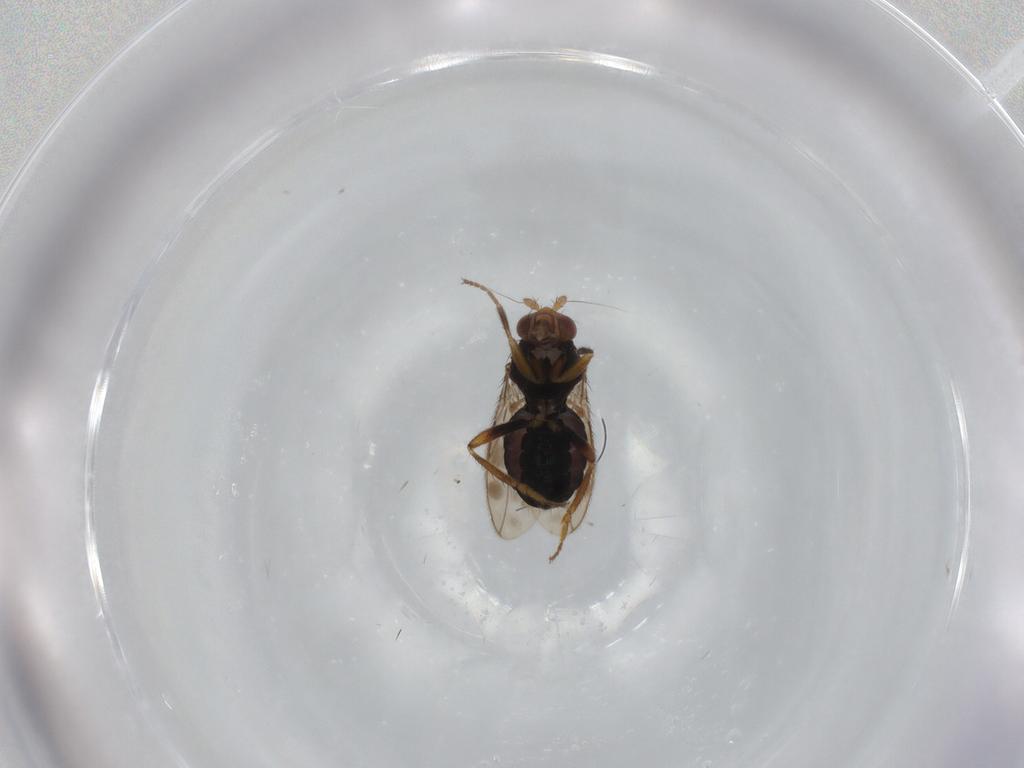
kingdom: Animalia
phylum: Arthropoda
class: Insecta
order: Diptera
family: Sphaeroceridae
